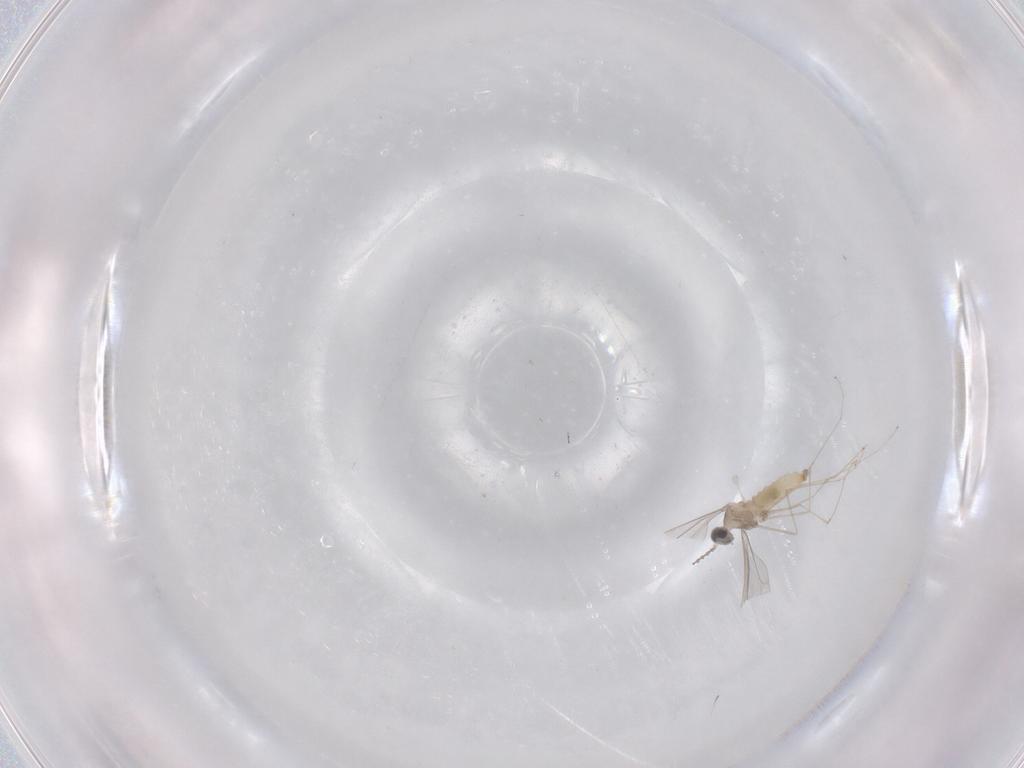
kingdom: Animalia
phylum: Arthropoda
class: Insecta
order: Diptera
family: Cecidomyiidae
